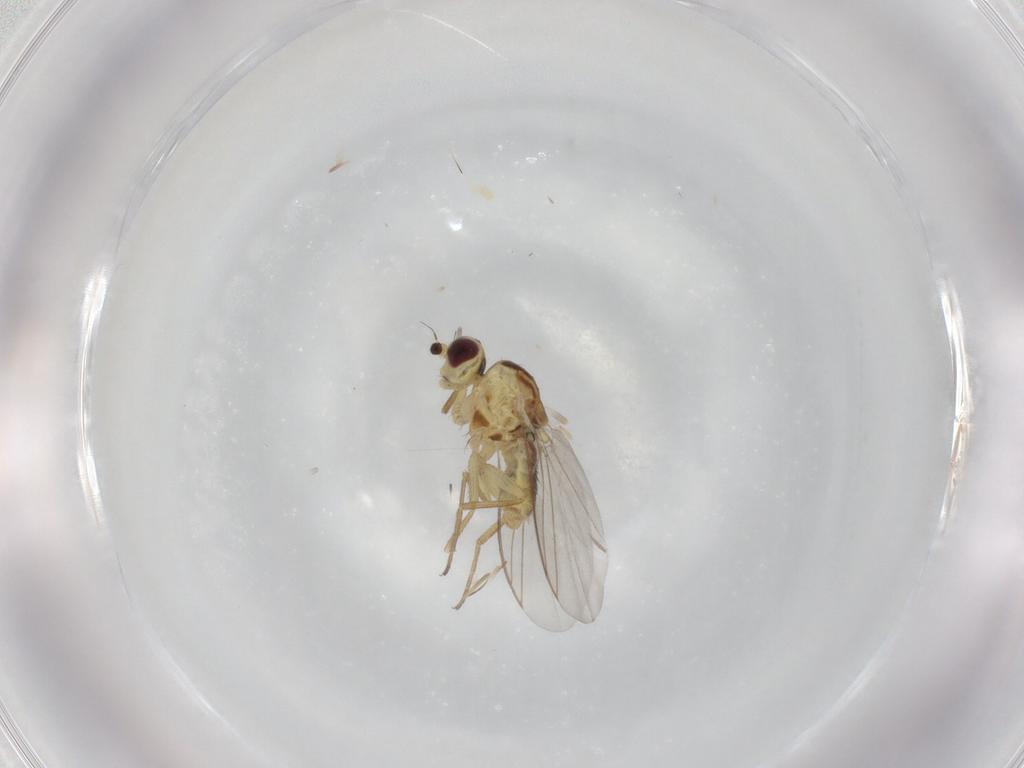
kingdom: Animalia
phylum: Arthropoda
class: Insecta
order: Diptera
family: Agromyzidae
